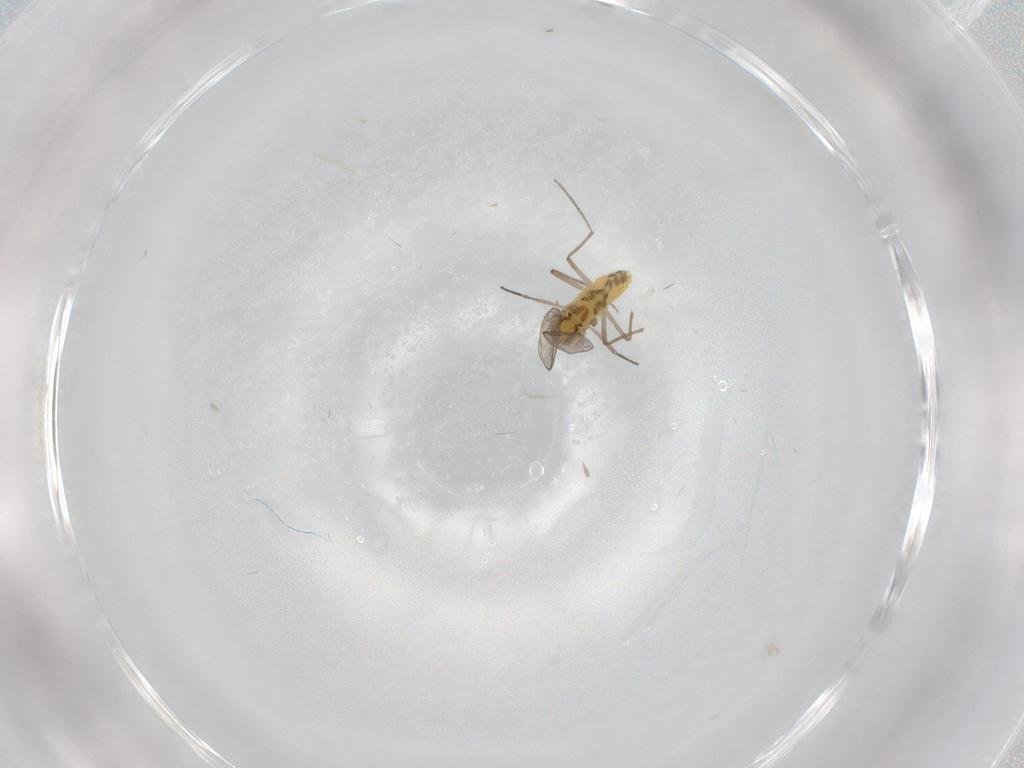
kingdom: Animalia
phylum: Arthropoda
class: Insecta
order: Diptera
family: Chironomidae
